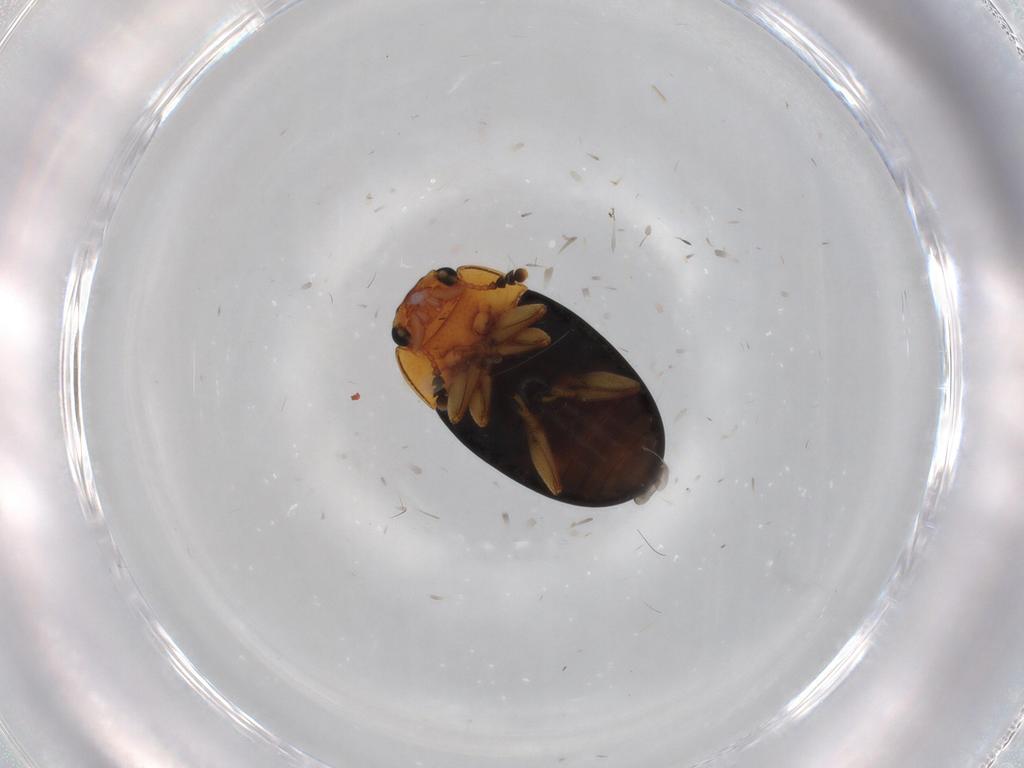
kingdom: Animalia
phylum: Arthropoda
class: Insecta
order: Coleoptera
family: Erotylidae
